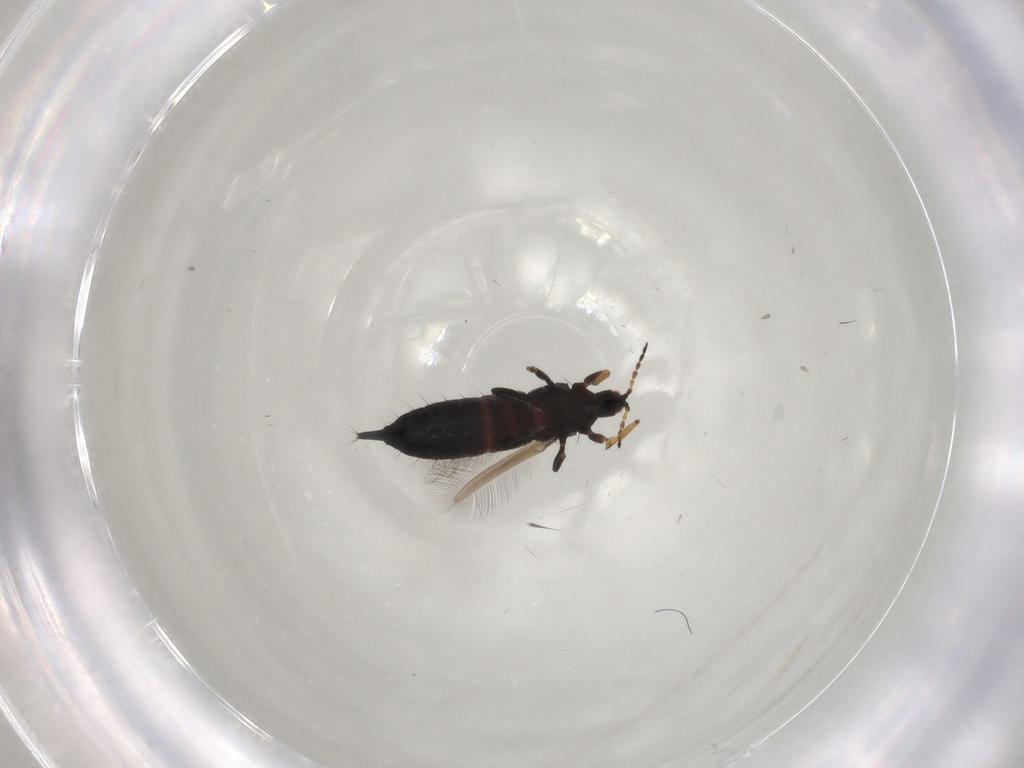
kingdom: Animalia
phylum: Arthropoda
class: Insecta
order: Thysanoptera
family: Phlaeothripidae
